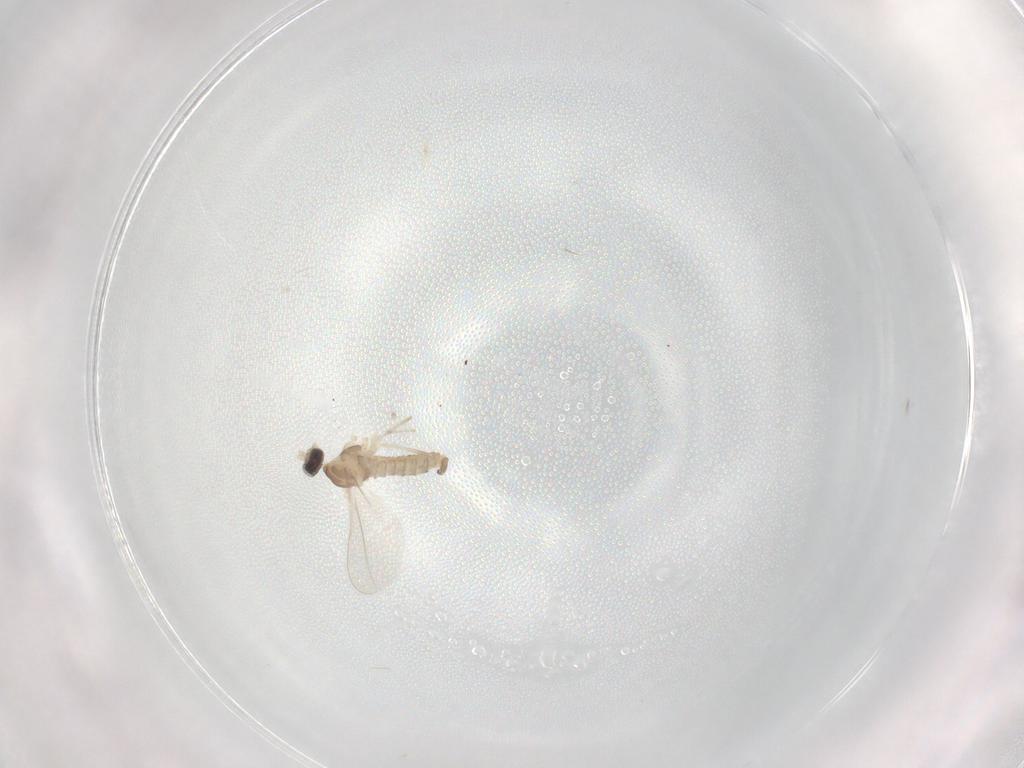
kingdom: Animalia
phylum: Arthropoda
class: Insecta
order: Diptera
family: Cecidomyiidae
